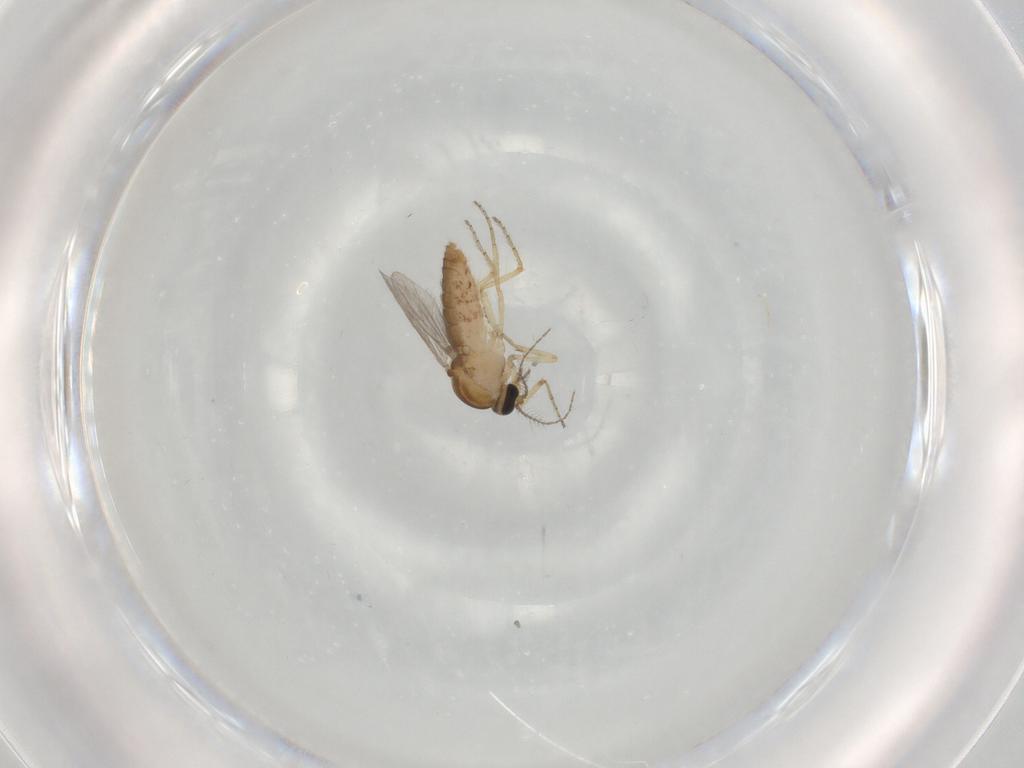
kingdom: Animalia
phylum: Arthropoda
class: Insecta
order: Diptera
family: Ceratopogonidae
